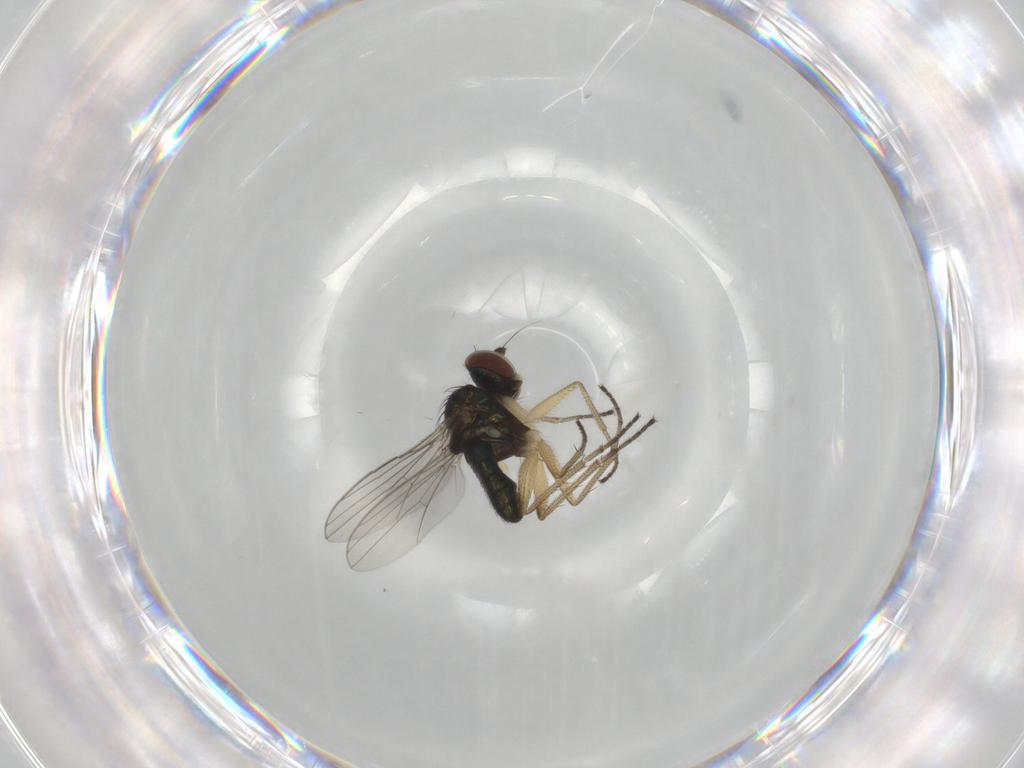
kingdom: Animalia
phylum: Arthropoda
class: Insecta
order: Diptera
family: Dolichopodidae
